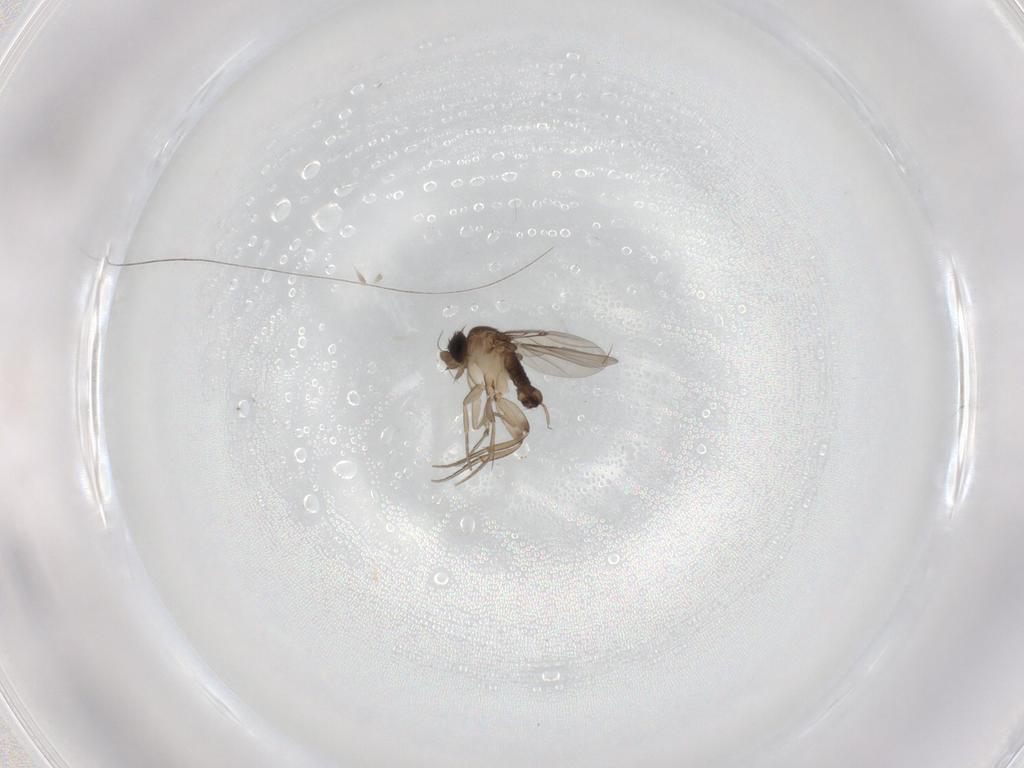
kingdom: Animalia
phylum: Arthropoda
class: Insecta
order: Diptera
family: Phoridae
